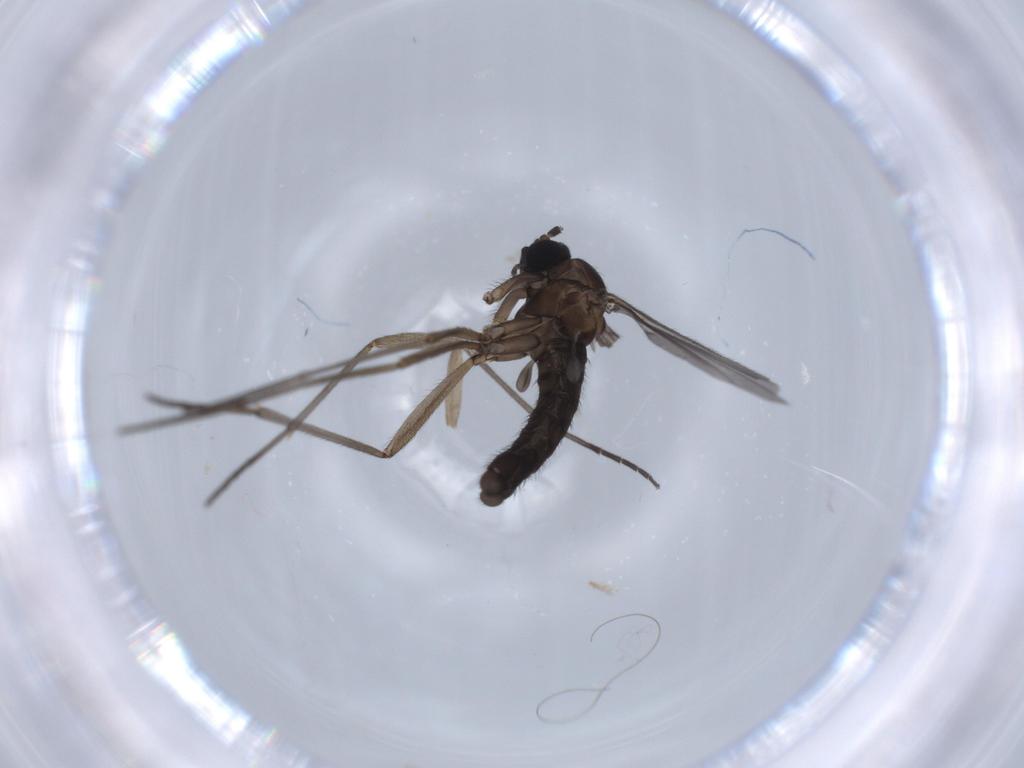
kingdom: Animalia
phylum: Arthropoda
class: Insecta
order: Diptera
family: Sciaridae
